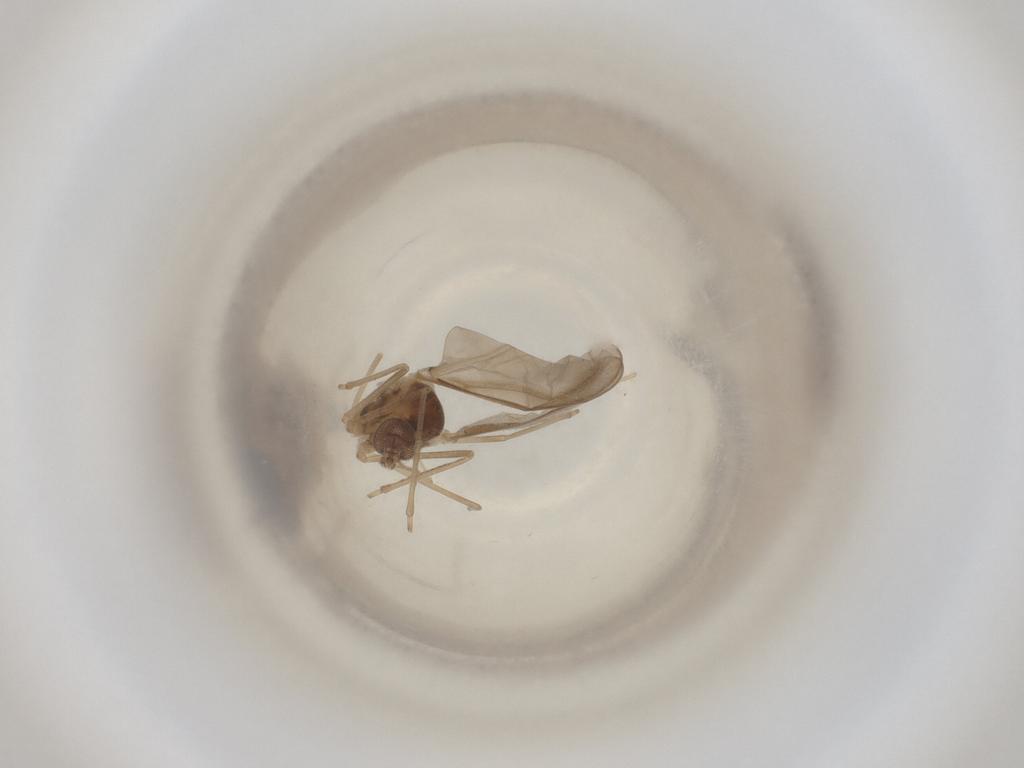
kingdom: Animalia
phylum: Arthropoda
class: Insecta
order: Diptera
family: Cecidomyiidae
